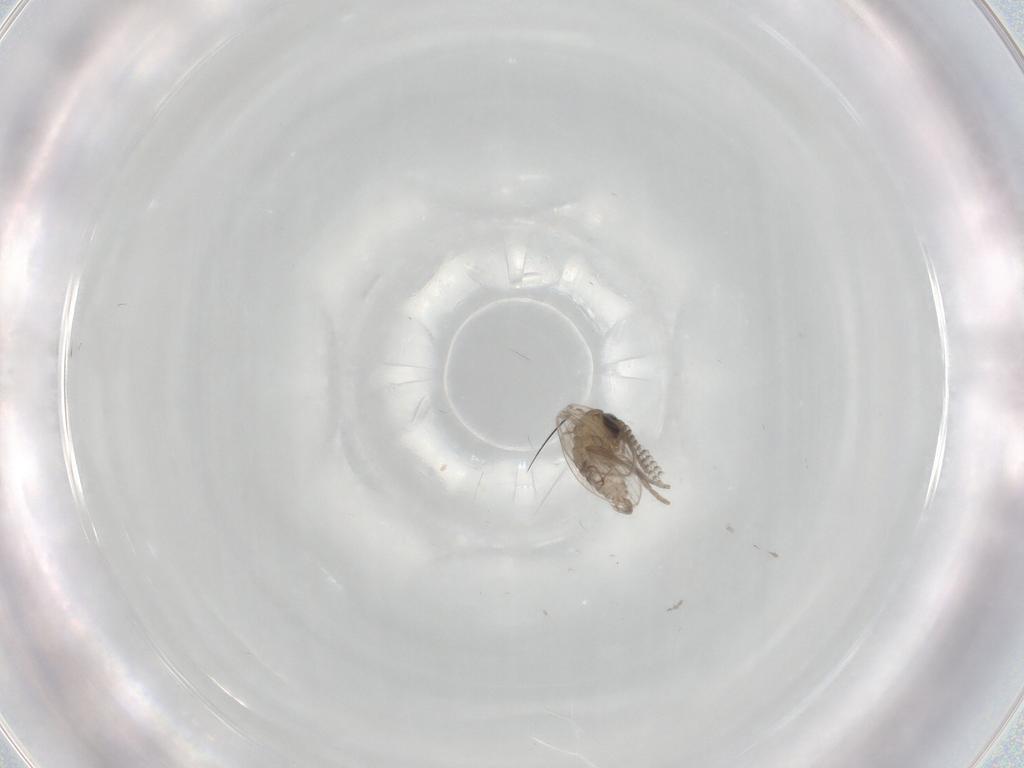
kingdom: Animalia
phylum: Arthropoda
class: Insecta
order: Diptera
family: Psychodidae
